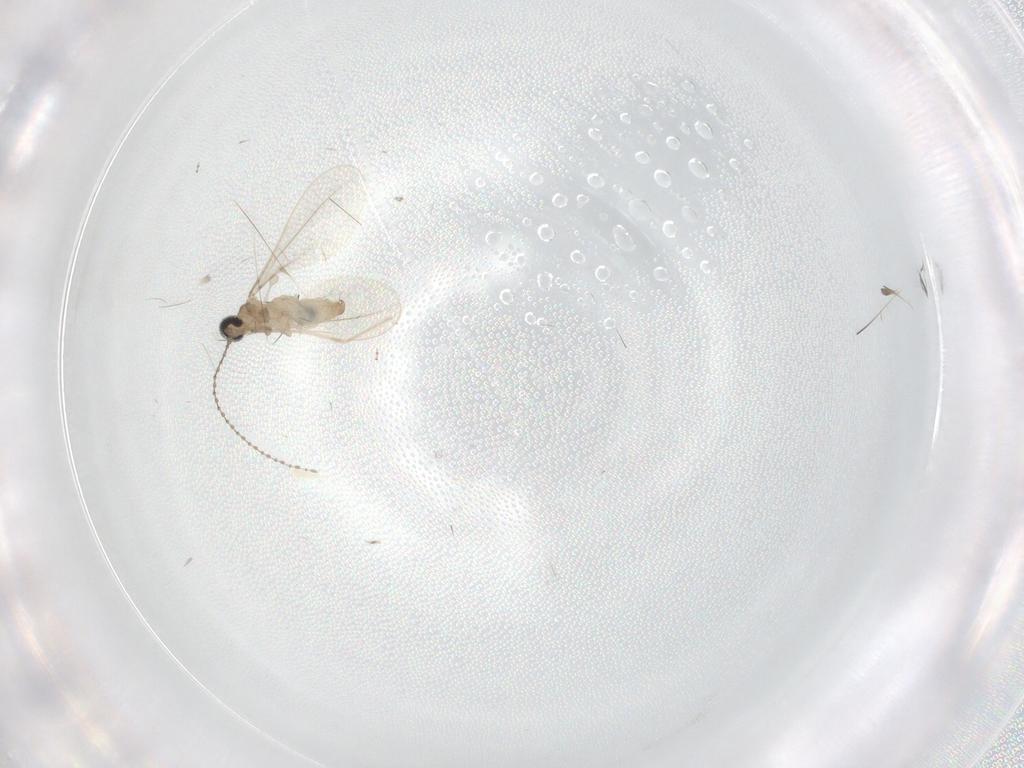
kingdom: Animalia
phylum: Arthropoda
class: Insecta
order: Diptera
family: Cecidomyiidae
